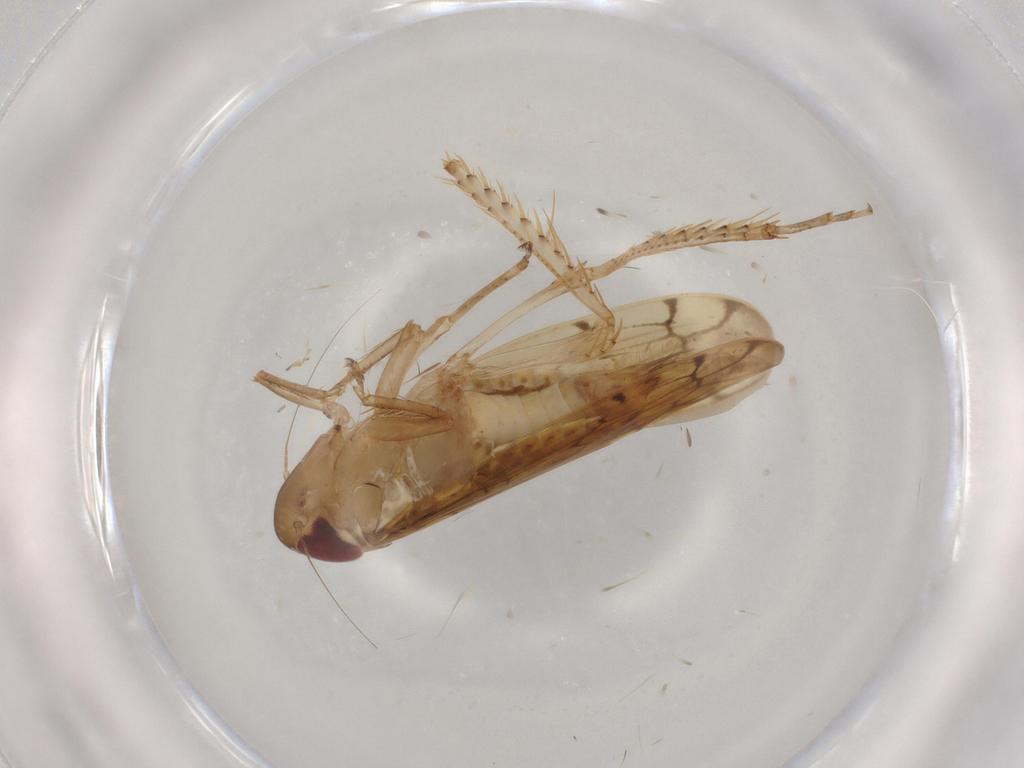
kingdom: Animalia
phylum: Arthropoda
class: Insecta
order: Hemiptera
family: Cicadellidae
